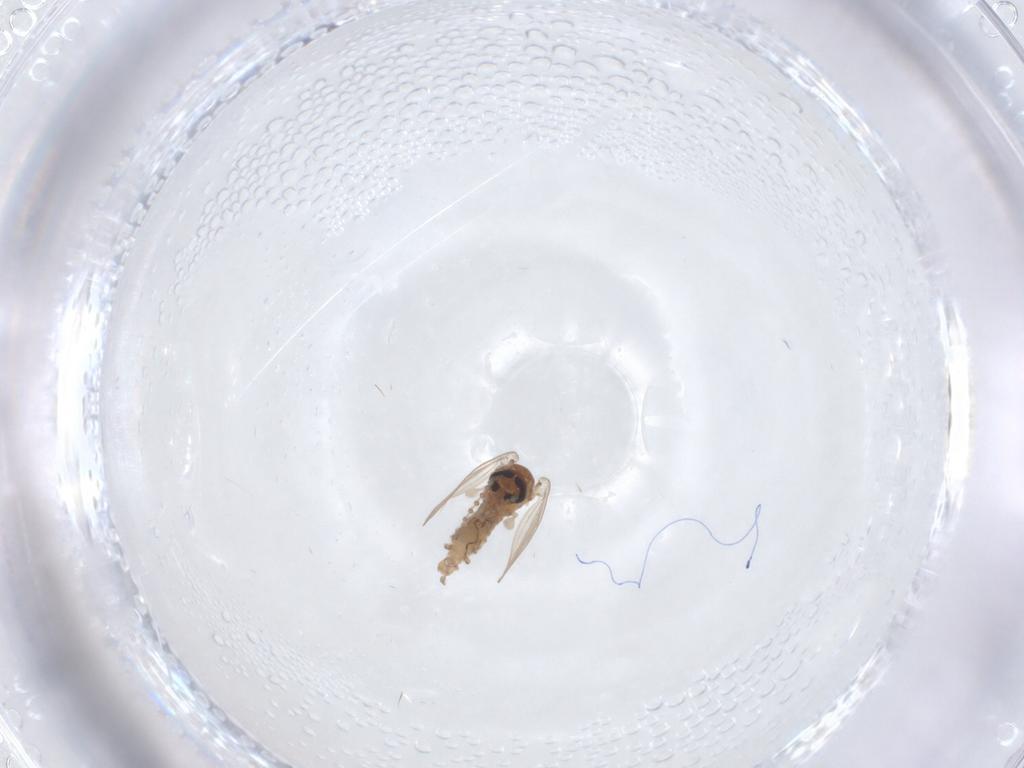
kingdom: Animalia
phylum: Arthropoda
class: Insecta
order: Diptera
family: Psychodidae
